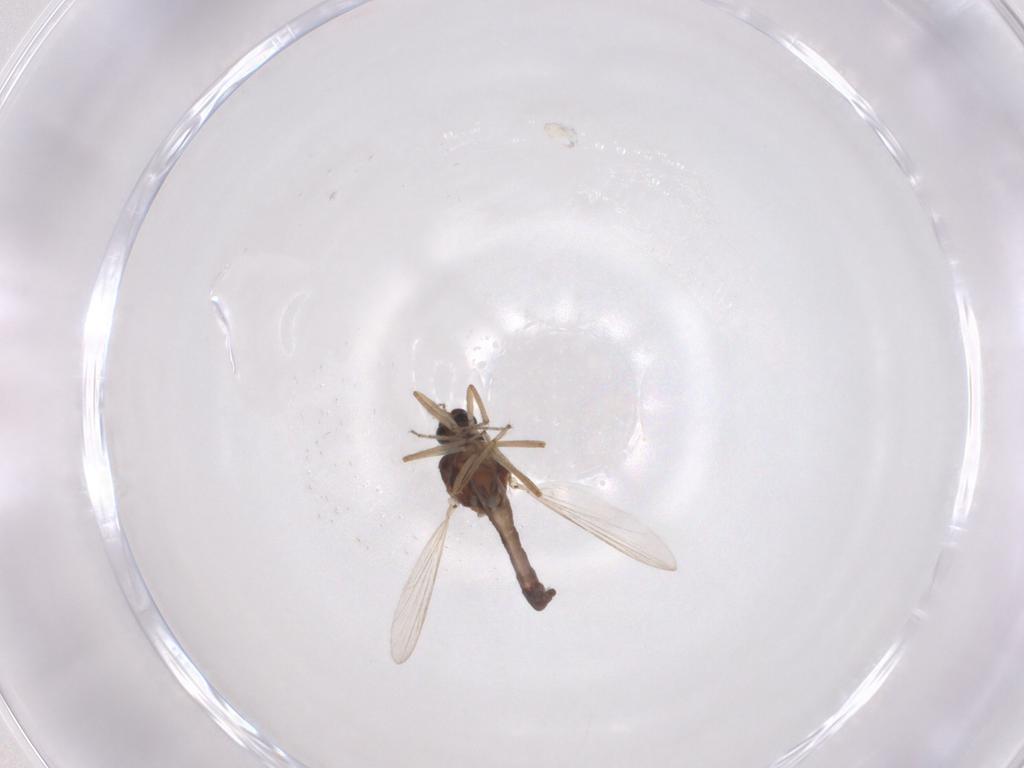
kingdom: Animalia
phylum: Arthropoda
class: Insecta
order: Diptera
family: Ceratopogonidae
